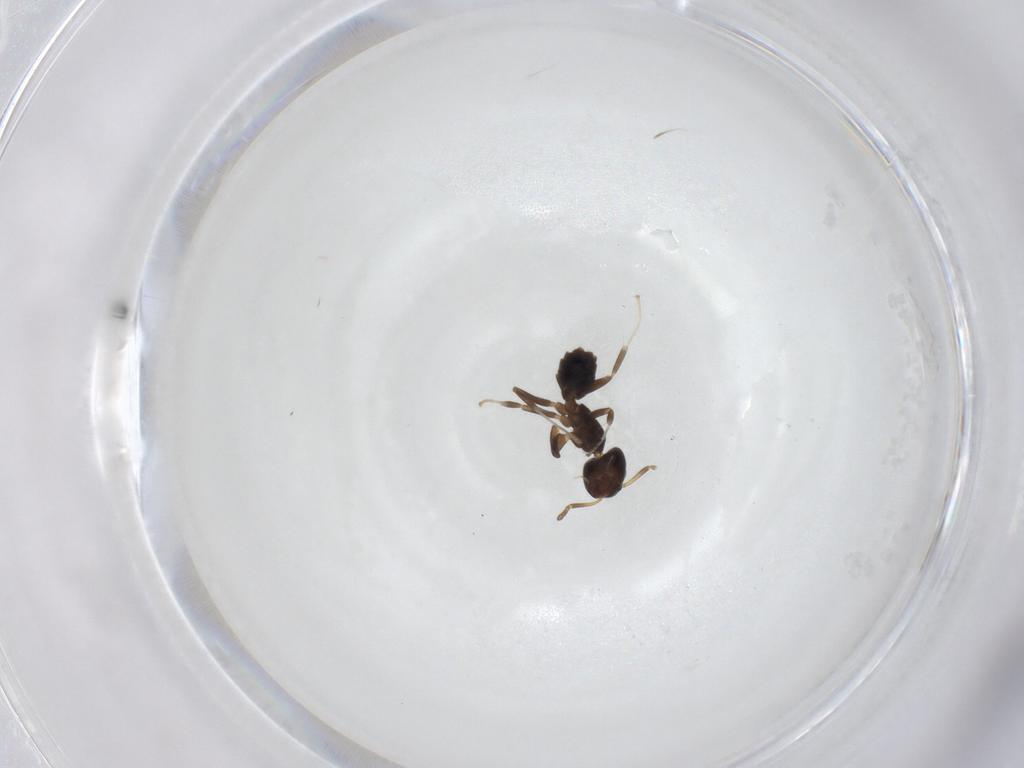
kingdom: Animalia
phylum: Arthropoda
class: Insecta
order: Hymenoptera
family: Formicidae
